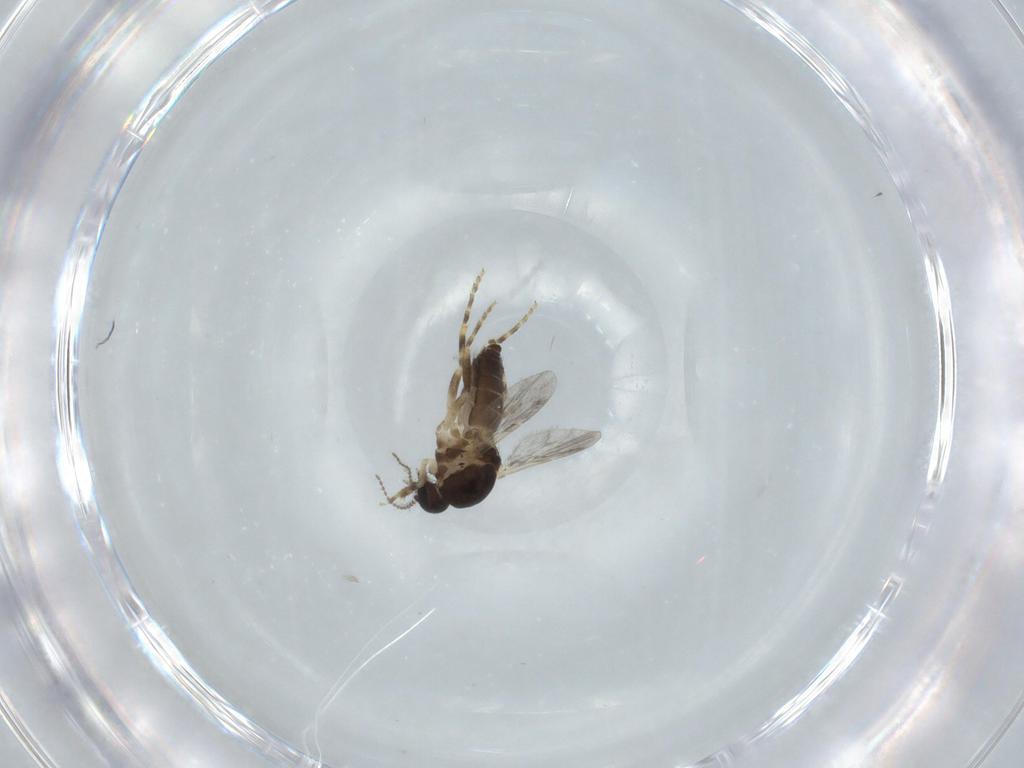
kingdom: Animalia
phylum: Arthropoda
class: Insecta
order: Diptera
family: Ceratopogonidae
